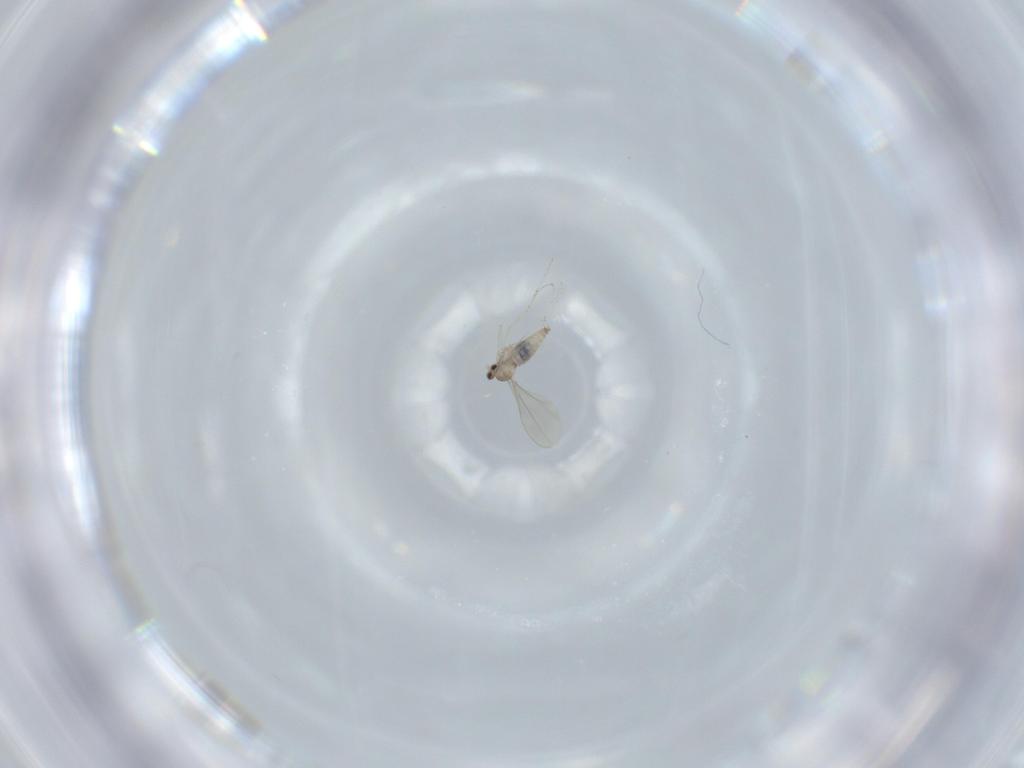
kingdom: Animalia
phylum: Arthropoda
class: Insecta
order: Diptera
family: Cecidomyiidae
